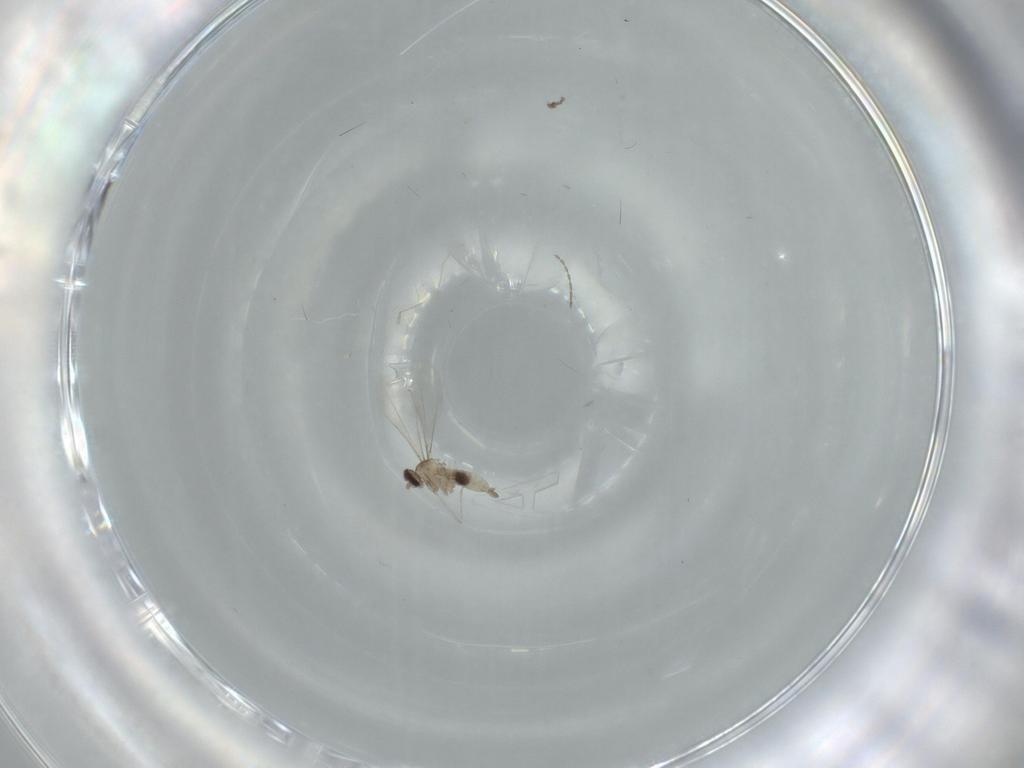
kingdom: Animalia
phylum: Arthropoda
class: Insecta
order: Diptera
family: Cecidomyiidae
